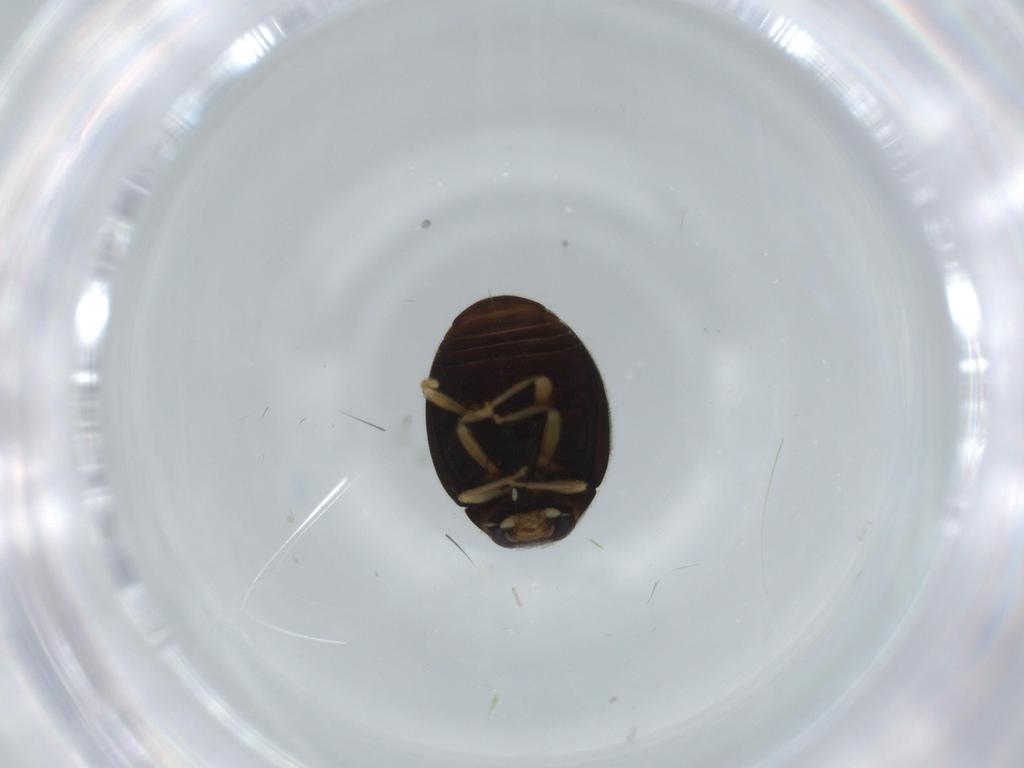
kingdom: Animalia
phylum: Arthropoda
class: Insecta
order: Coleoptera
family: Coccinellidae
